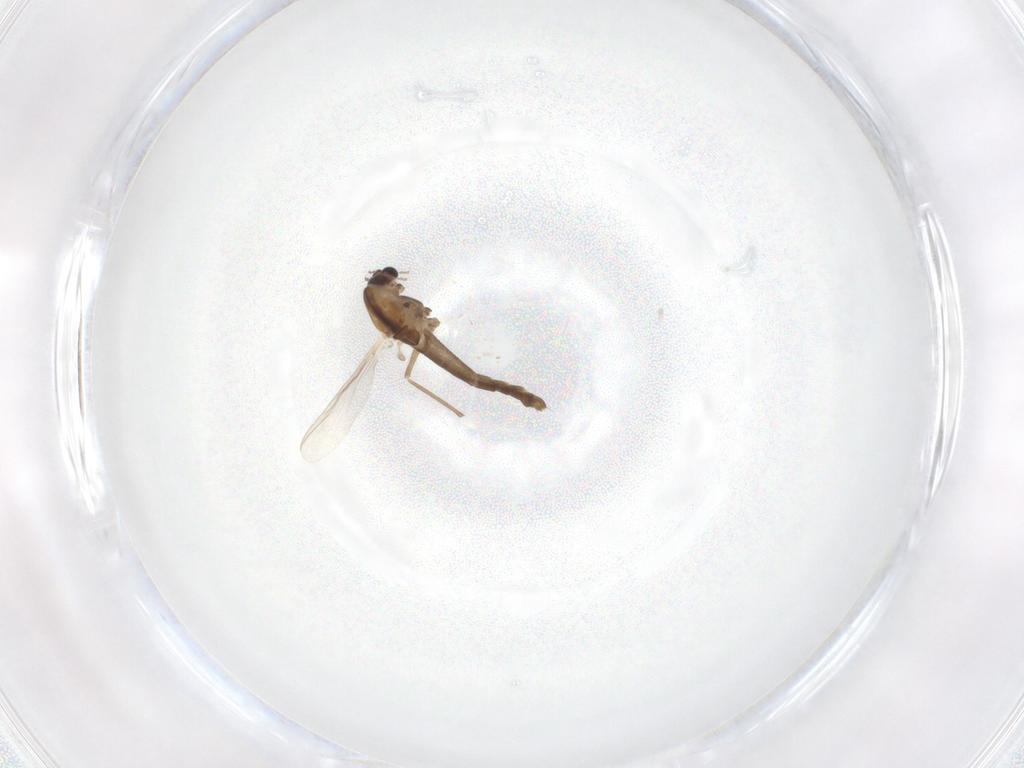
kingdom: Animalia
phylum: Arthropoda
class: Insecta
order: Diptera
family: Chironomidae
